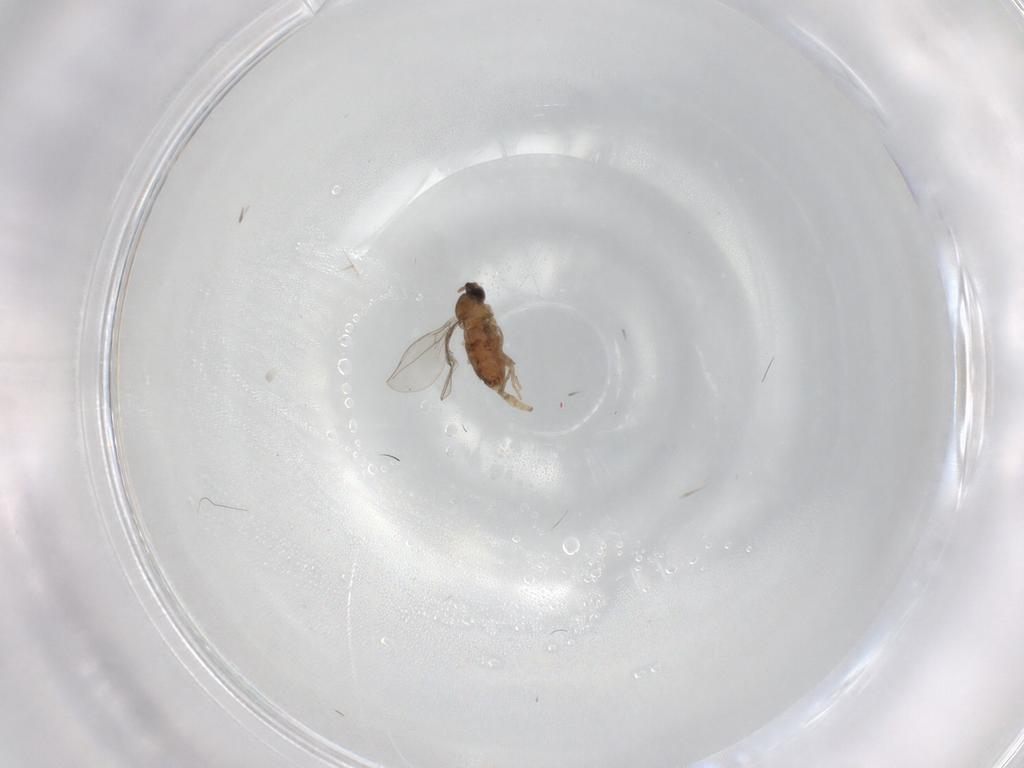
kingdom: Animalia
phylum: Arthropoda
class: Insecta
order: Diptera
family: Cecidomyiidae
